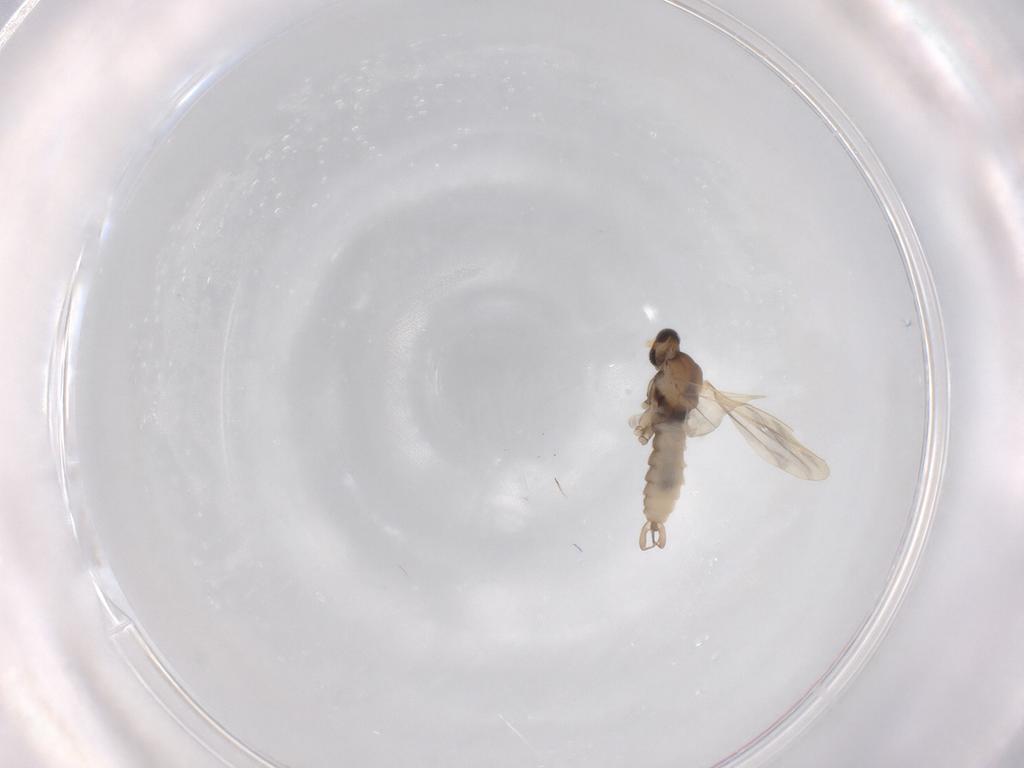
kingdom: Animalia
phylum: Arthropoda
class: Insecta
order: Diptera
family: Cecidomyiidae
